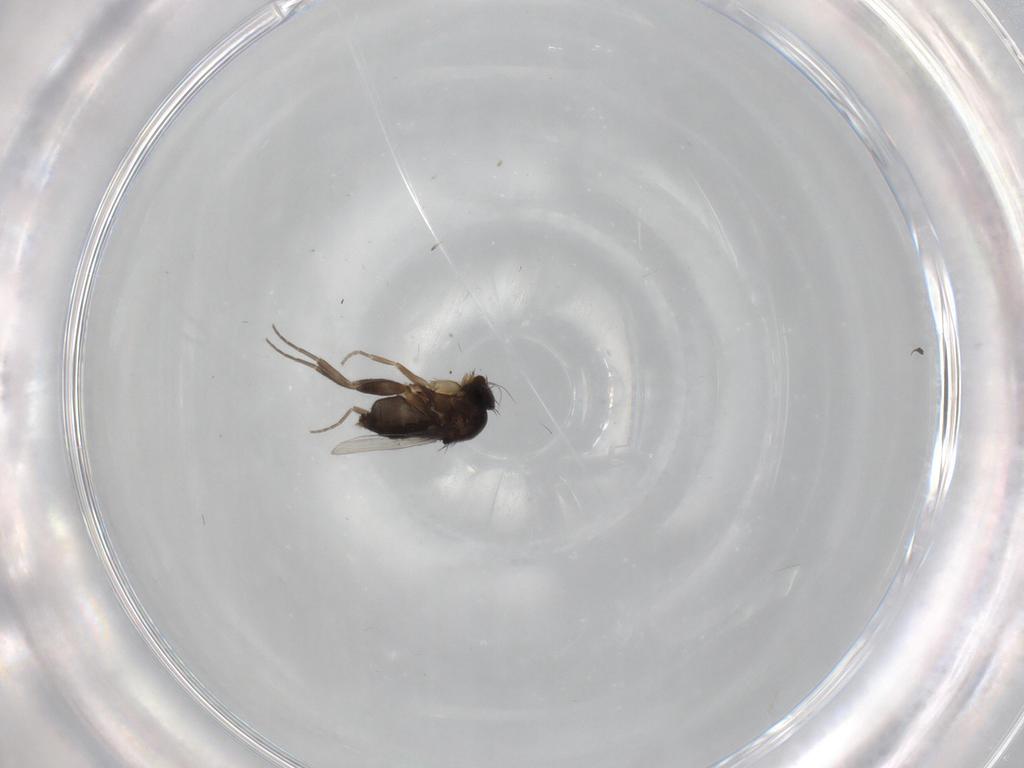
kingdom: Animalia
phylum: Arthropoda
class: Insecta
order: Diptera
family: Phoridae
